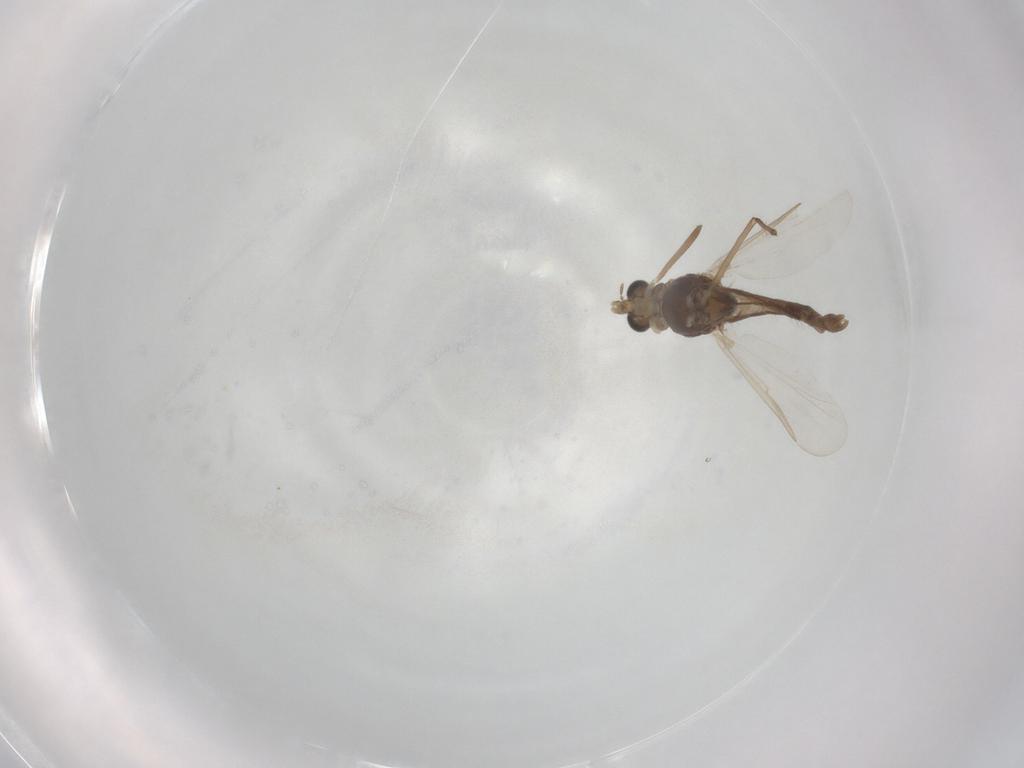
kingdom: Animalia
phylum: Arthropoda
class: Insecta
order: Diptera
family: Chironomidae
